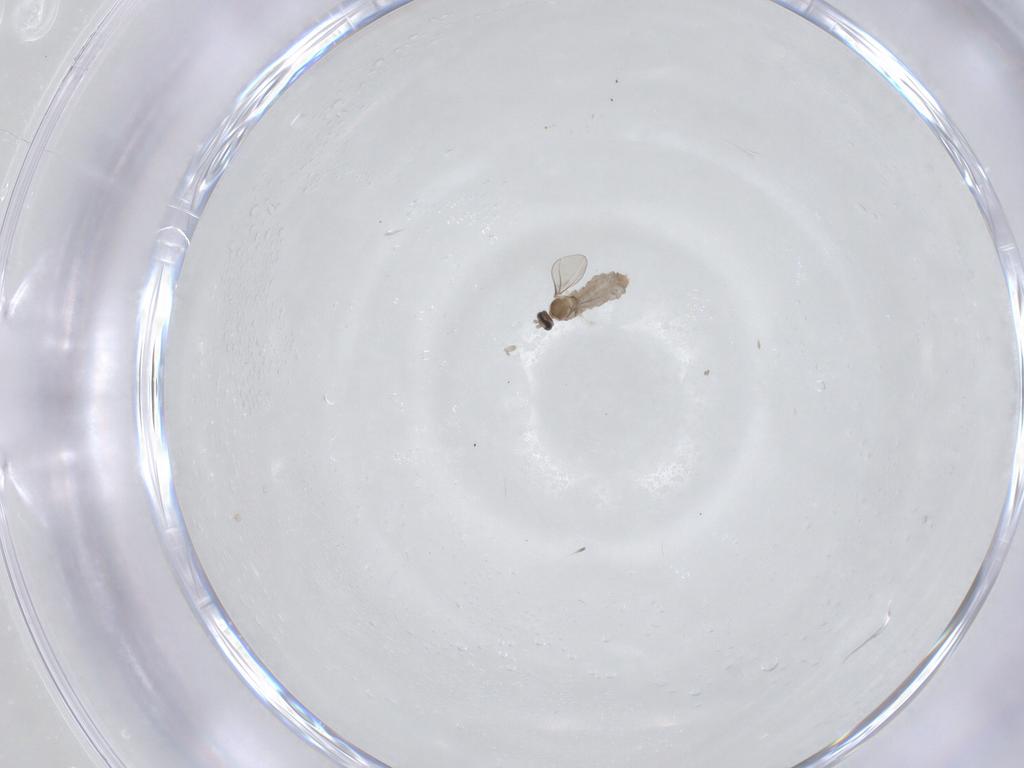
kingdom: Animalia
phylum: Arthropoda
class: Insecta
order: Diptera
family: Cecidomyiidae
